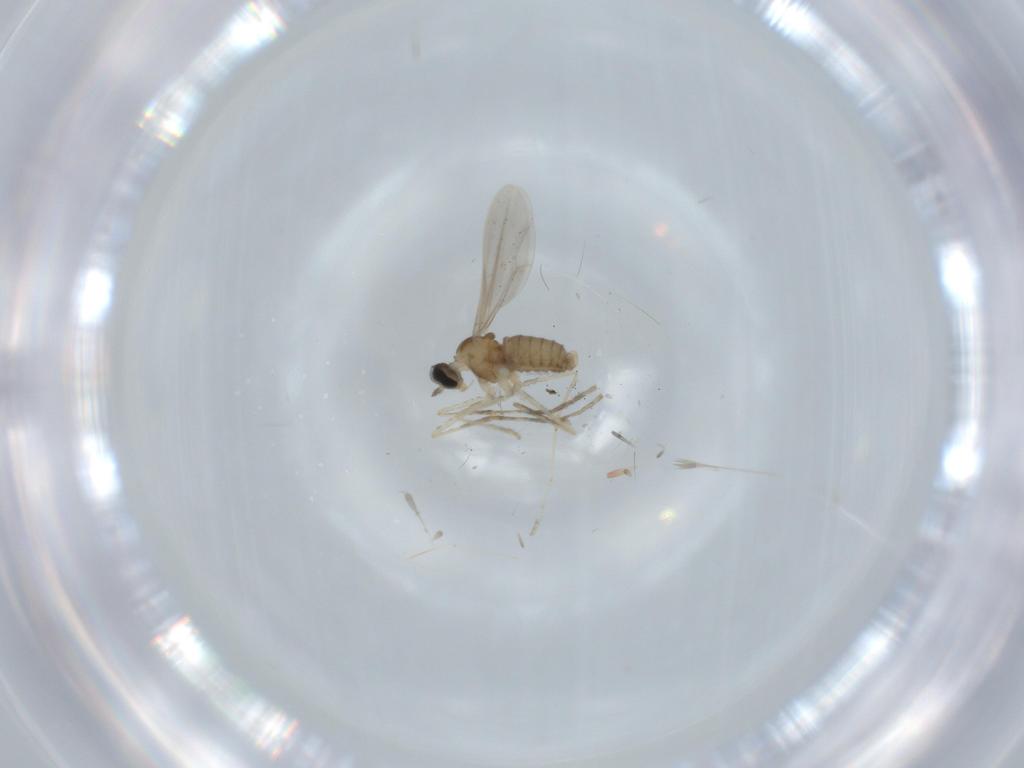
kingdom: Animalia
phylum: Arthropoda
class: Insecta
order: Diptera
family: Cecidomyiidae
